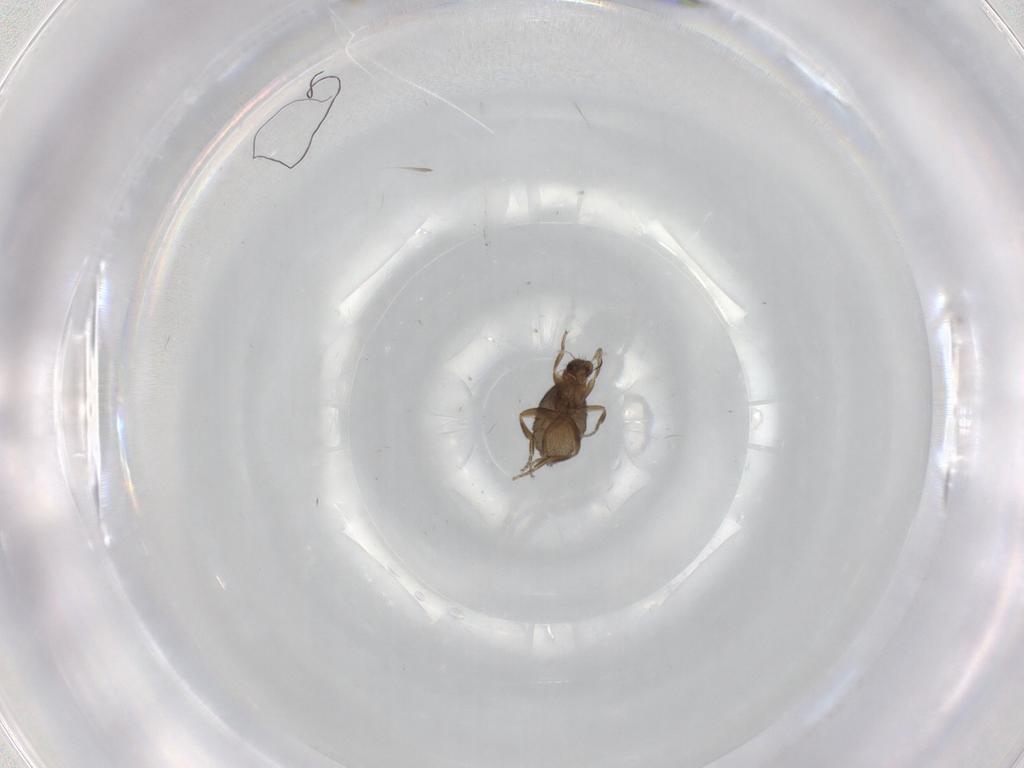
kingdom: Animalia
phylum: Arthropoda
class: Insecta
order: Diptera
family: Phoridae
